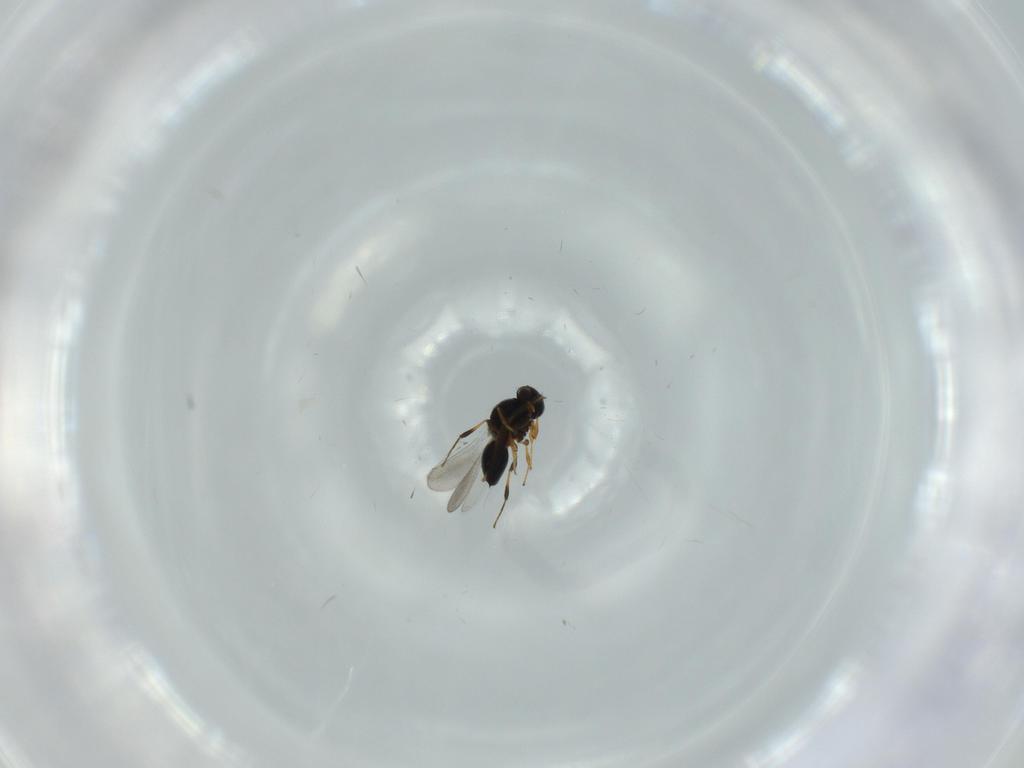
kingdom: Animalia
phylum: Arthropoda
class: Insecta
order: Hymenoptera
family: Platygastridae
